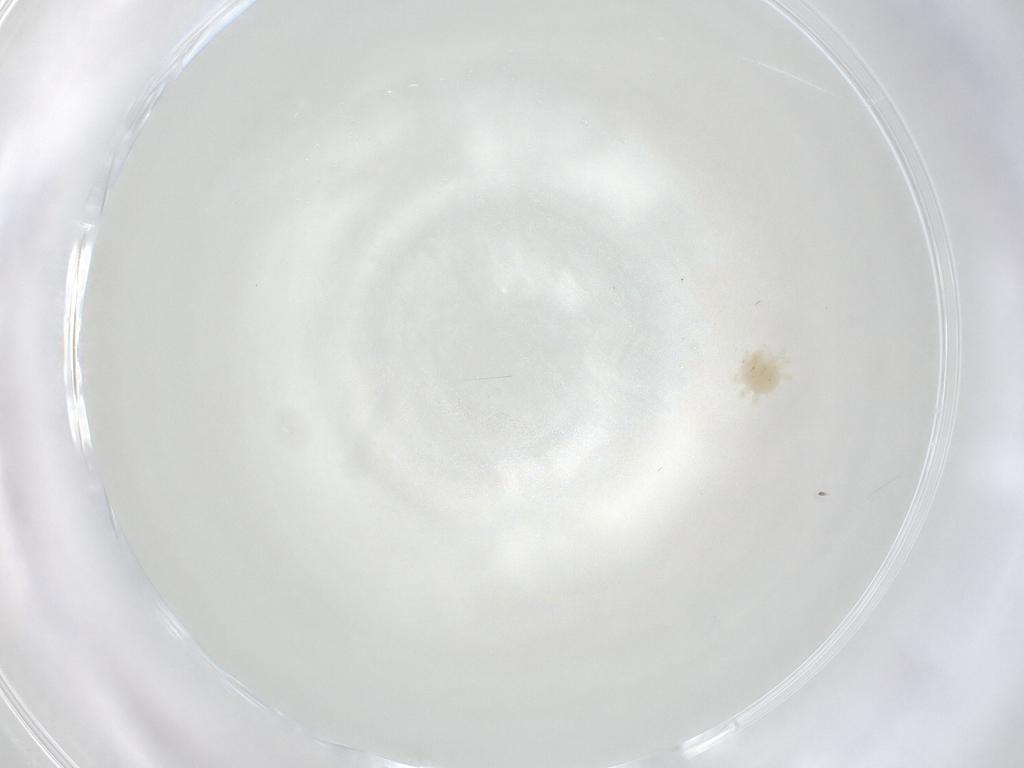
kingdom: Animalia
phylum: Arthropoda
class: Arachnida
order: Trombidiformes
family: Anystidae
